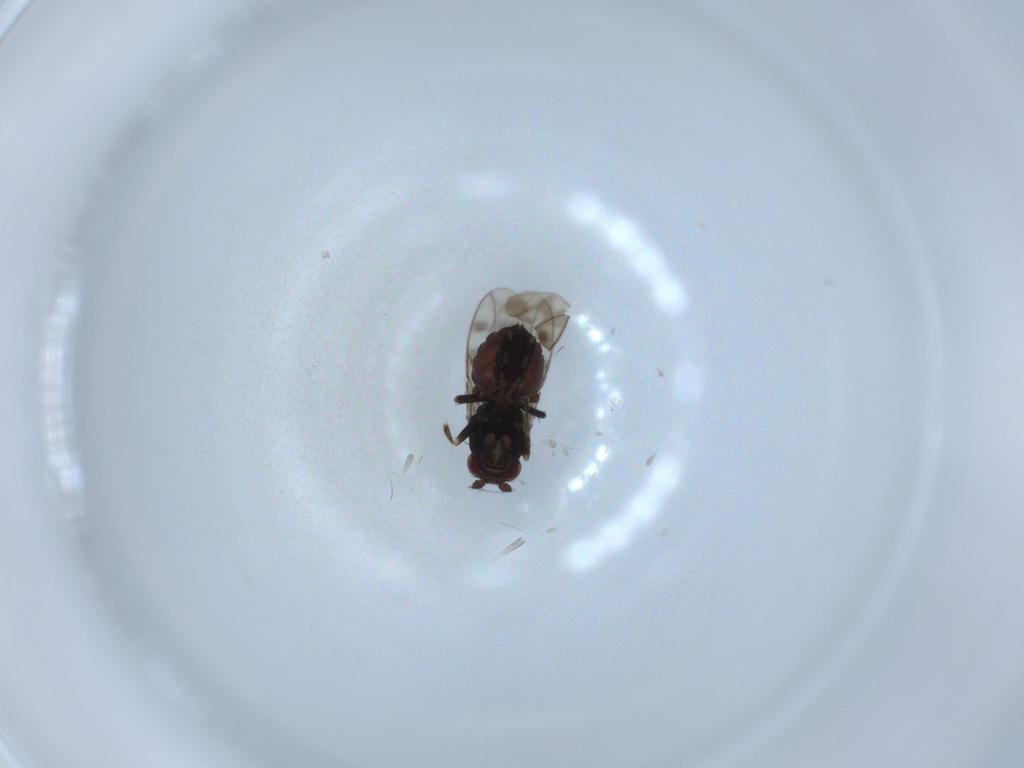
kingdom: Animalia
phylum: Arthropoda
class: Insecta
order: Diptera
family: Sphaeroceridae
